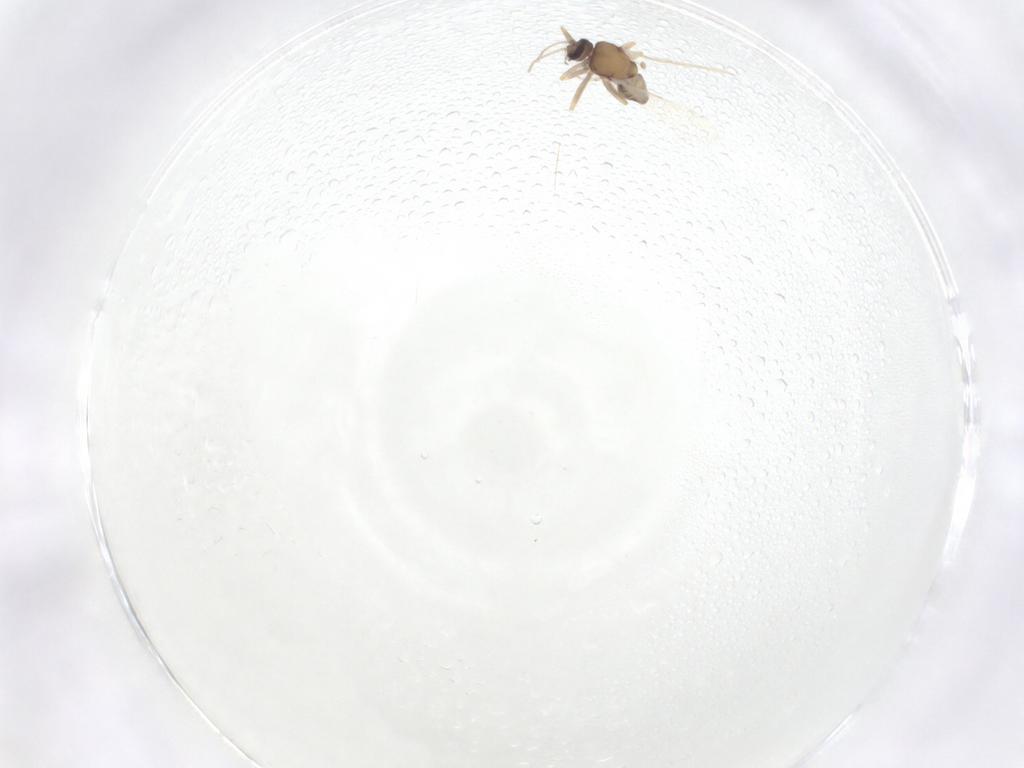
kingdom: Animalia
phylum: Arthropoda
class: Insecta
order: Diptera
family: Ceratopogonidae
